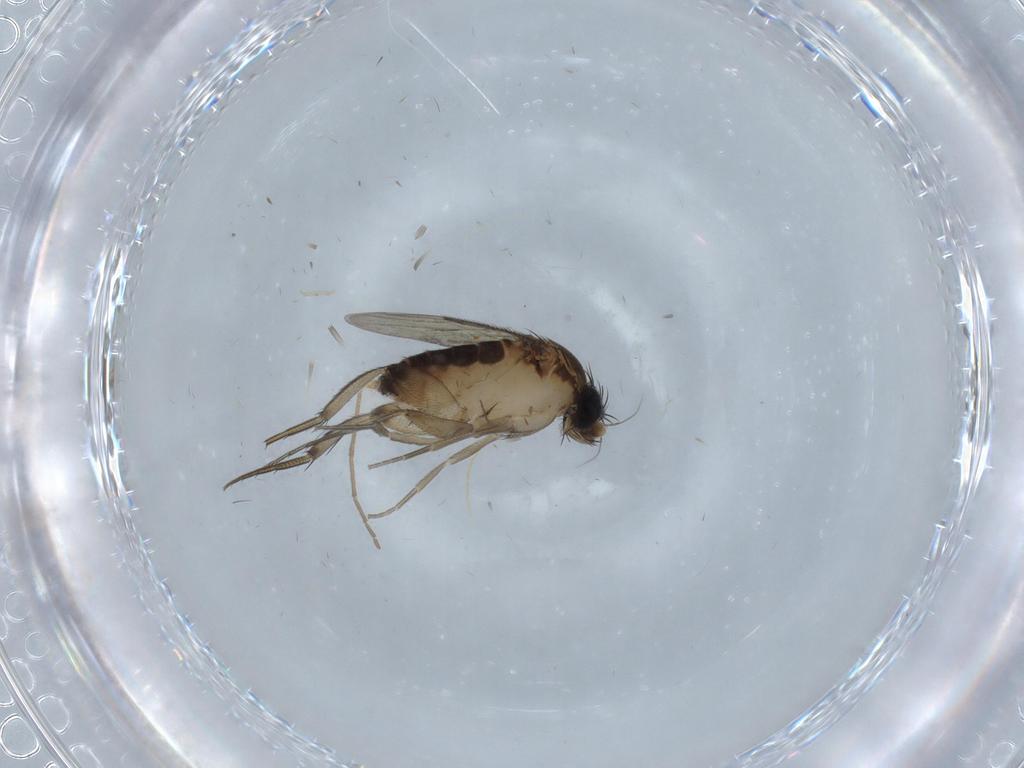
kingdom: Animalia
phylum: Arthropoda
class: Insecta
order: Diptera
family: Sciaridae
